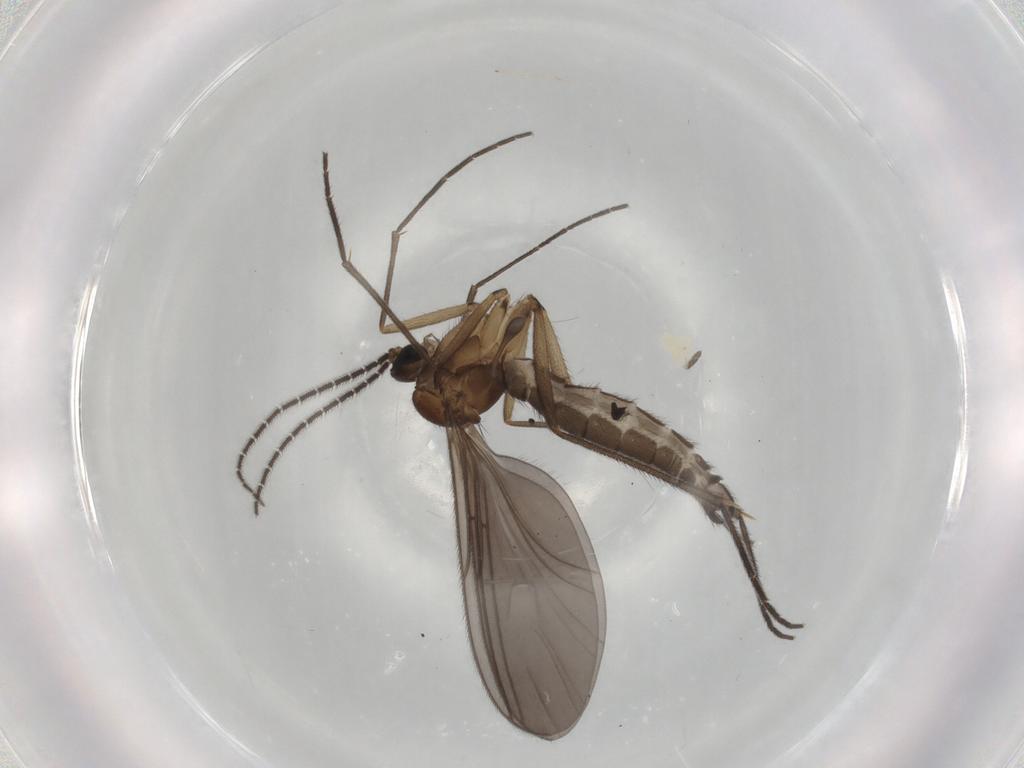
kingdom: Animalia
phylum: Arthropoda
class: Insecta
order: Diptera
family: Sciaridae
